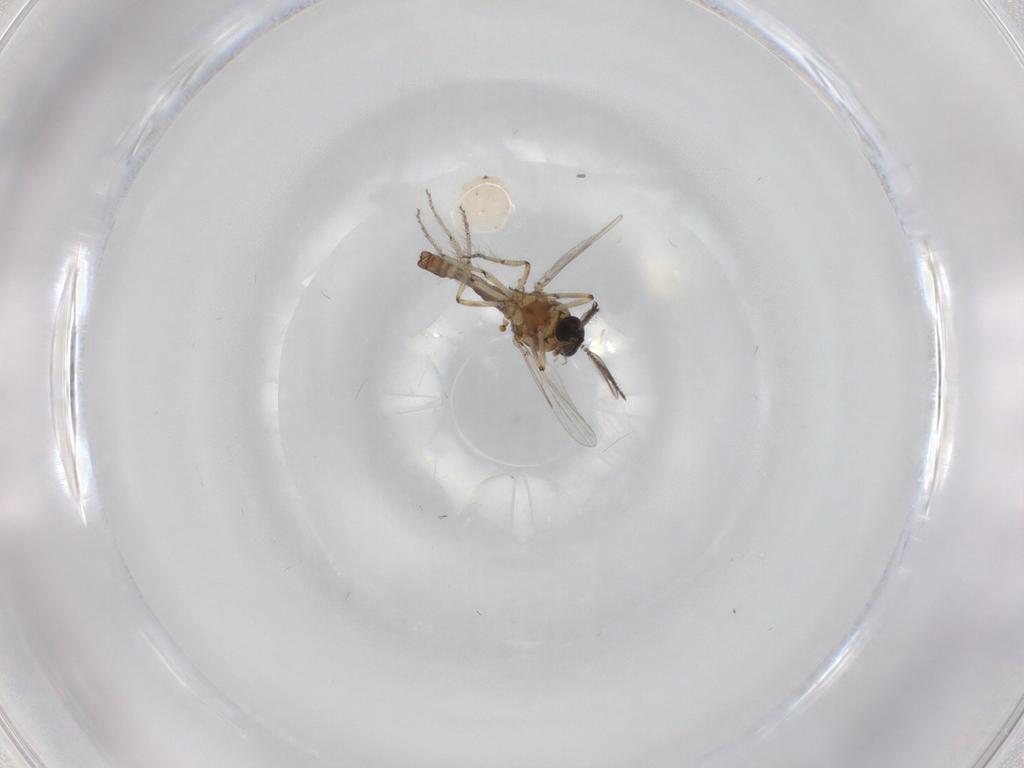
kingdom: Animalia
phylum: Arthropoda
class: Insecta
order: Diptera
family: Ceratopogonidae
